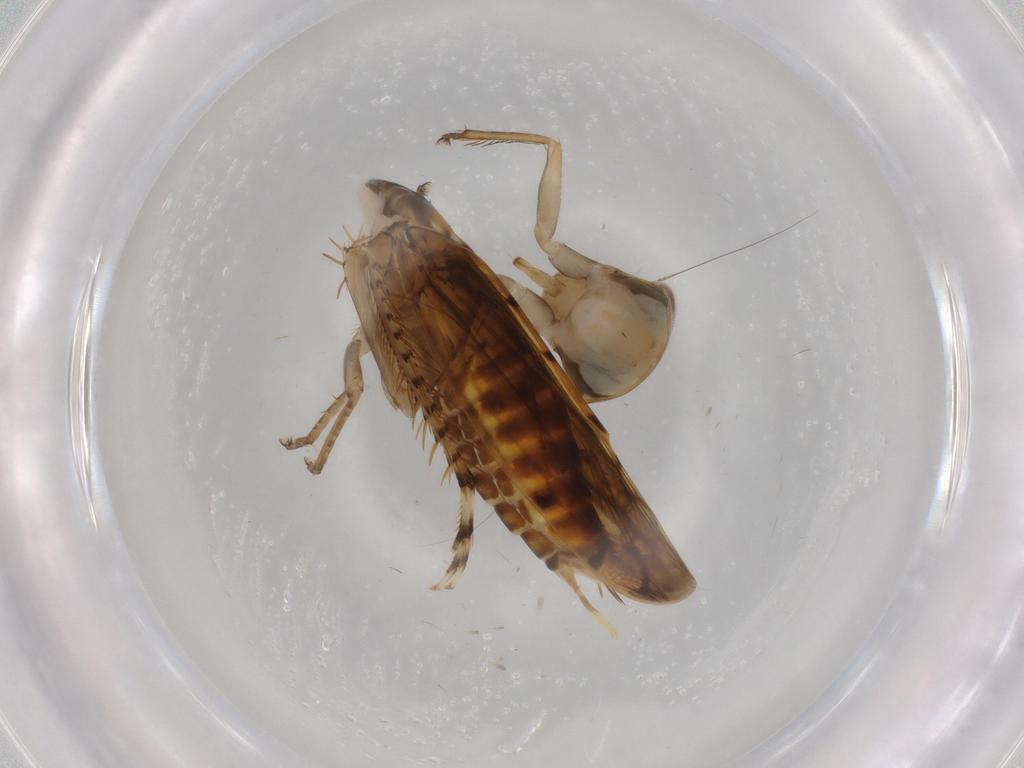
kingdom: Animalia
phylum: Arthropoda
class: Insecta
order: Hemiptera
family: Cicadellidae
